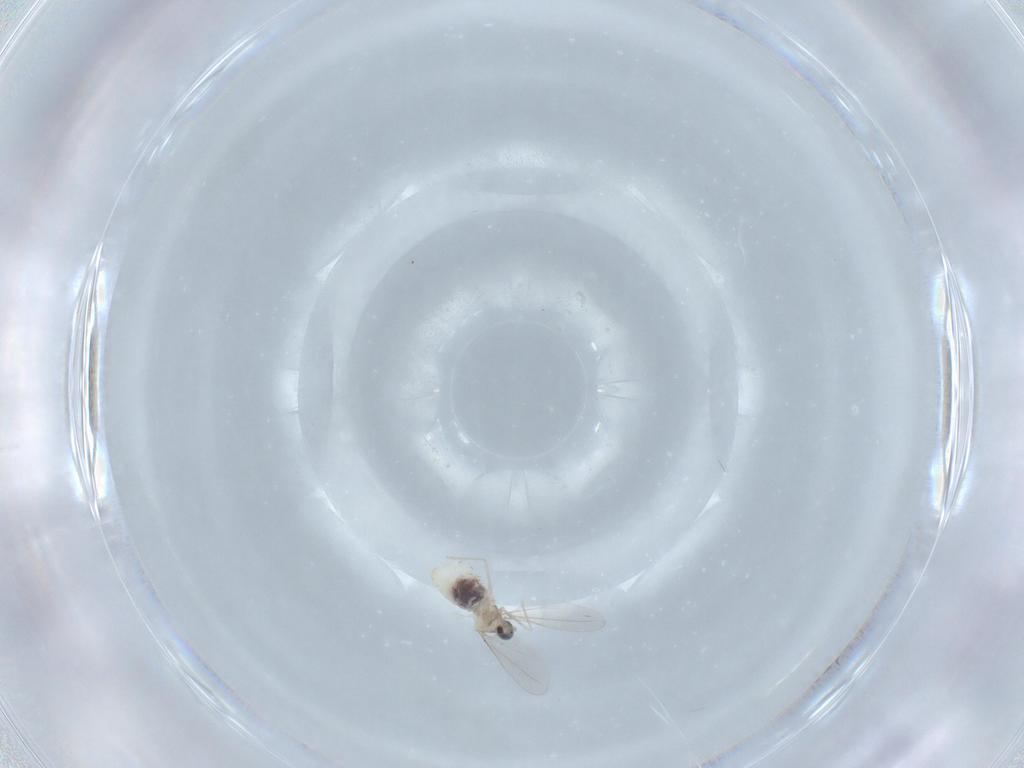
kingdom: Animalia
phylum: Arthropoda
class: Insecta
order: Diptera
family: Cecidomyiidae
